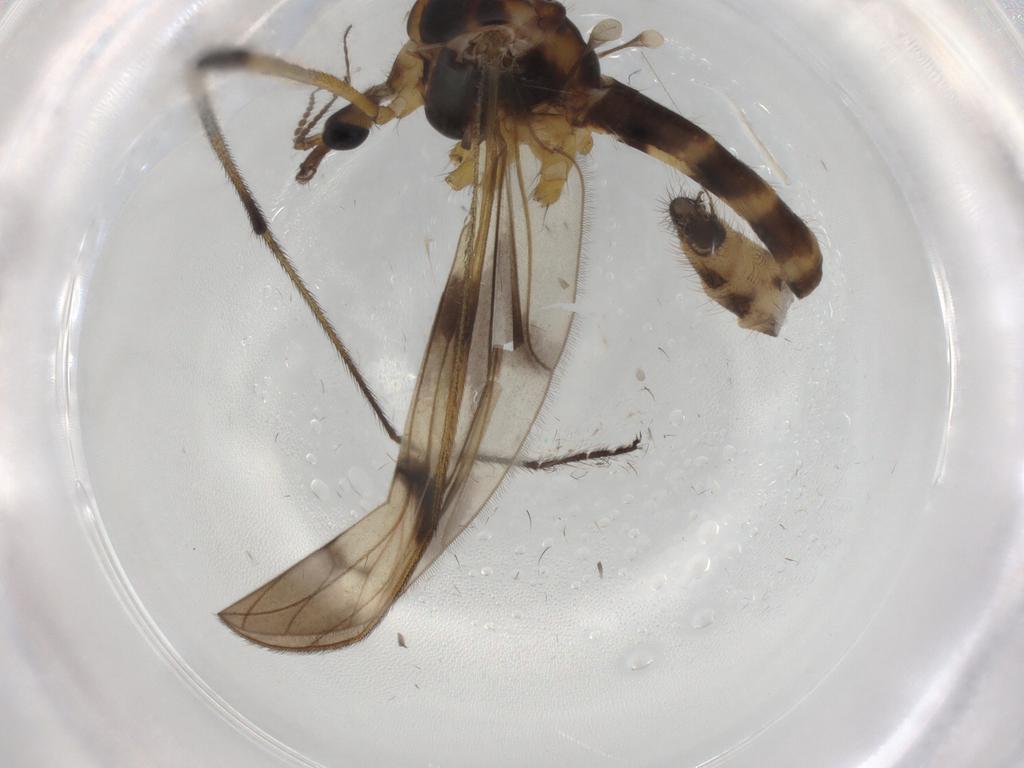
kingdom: Animalia
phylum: Arthropoda
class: Insecta
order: Diptera
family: Limoniidae
